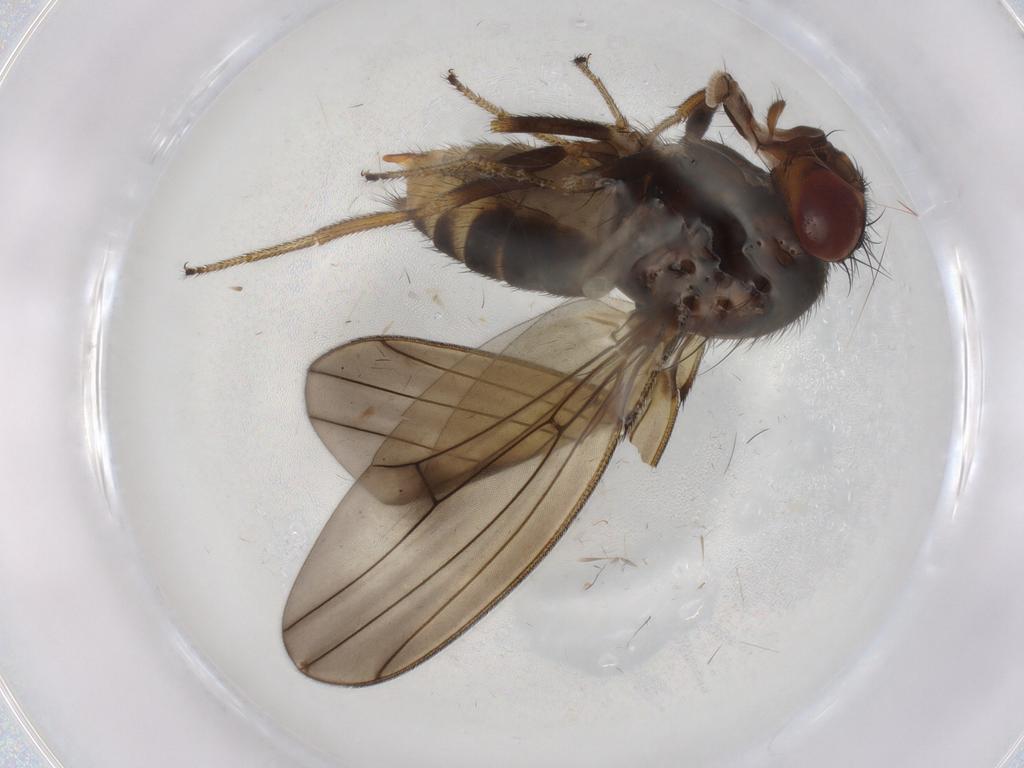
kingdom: Animalia
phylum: Arthropoda
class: Insecta
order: Diptera
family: Drosophilidae
